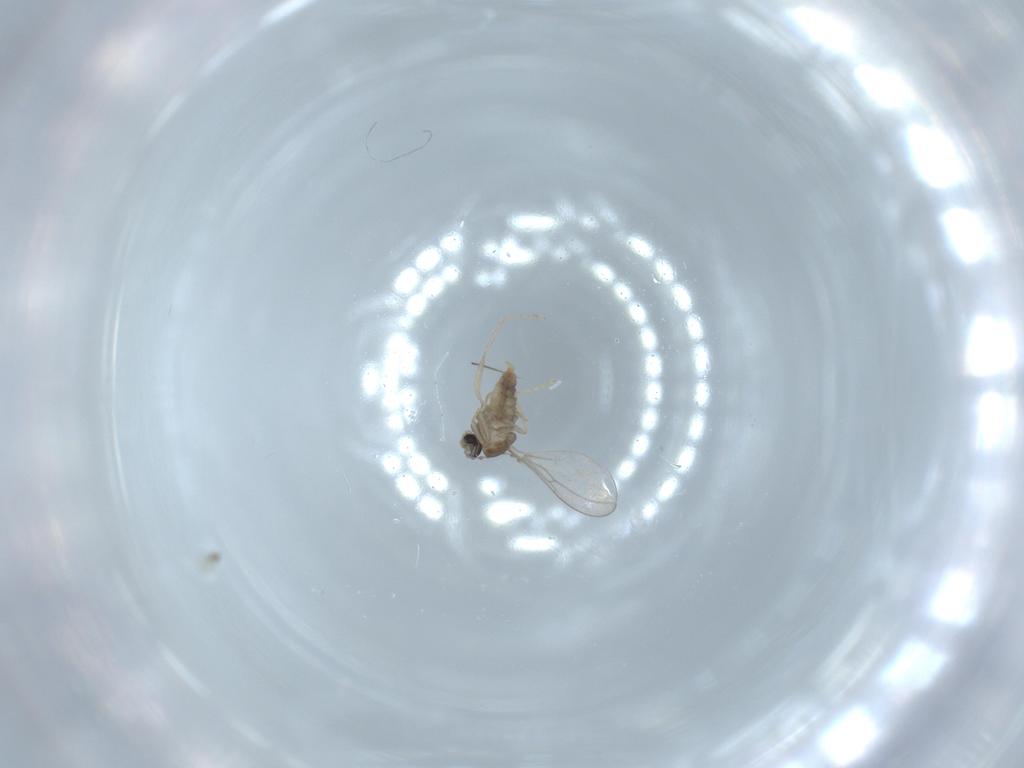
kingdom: Animalia
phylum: Arthropoda
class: Insecta
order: Diptera
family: Cecidomyiidae
